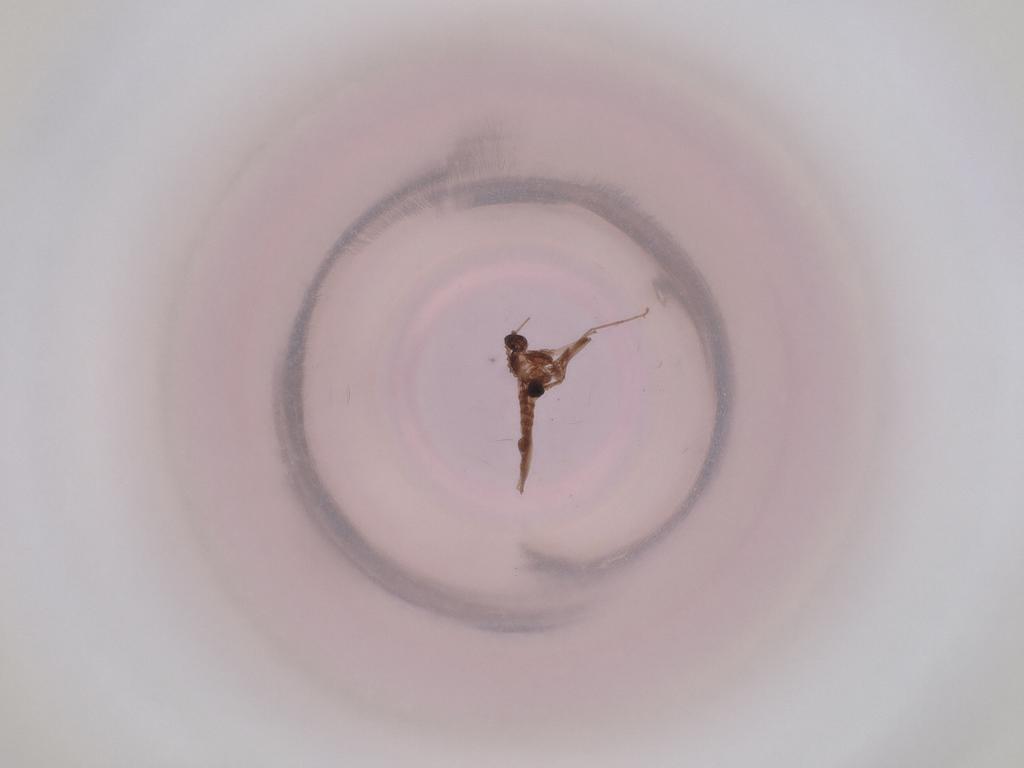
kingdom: Animalia
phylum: Arthropoda
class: Insecta
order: Diptera
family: Cecidomyiidae
